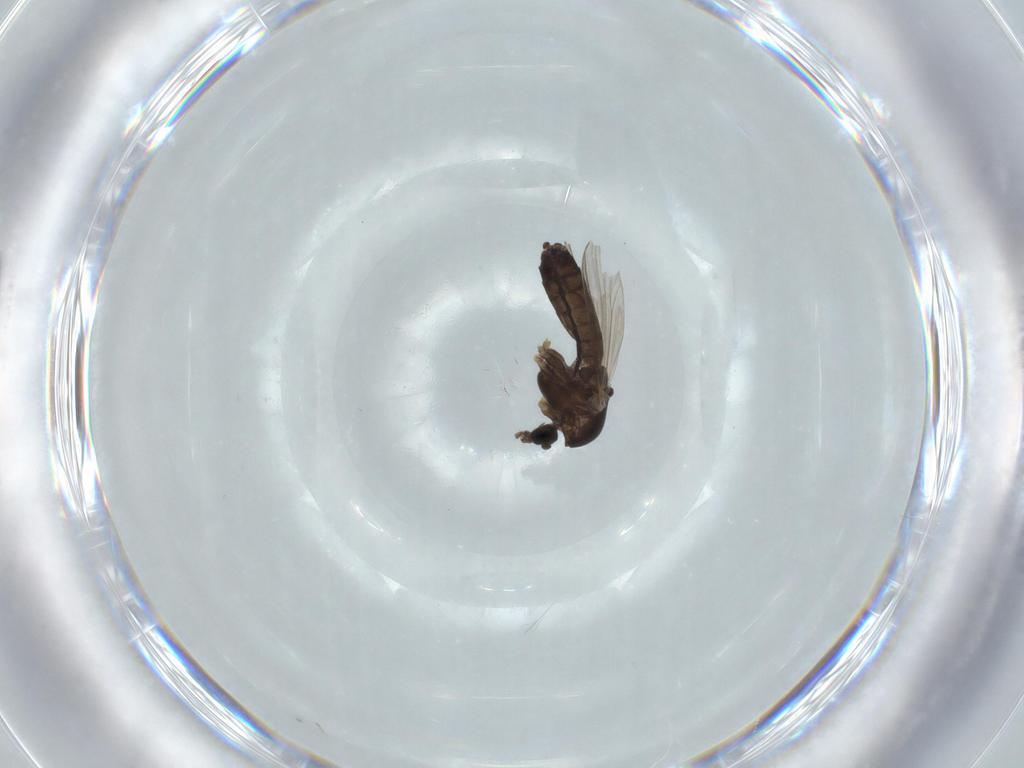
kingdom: Animalia
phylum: Arthropoda
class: Insecta
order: Diptera
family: Chironomidae
